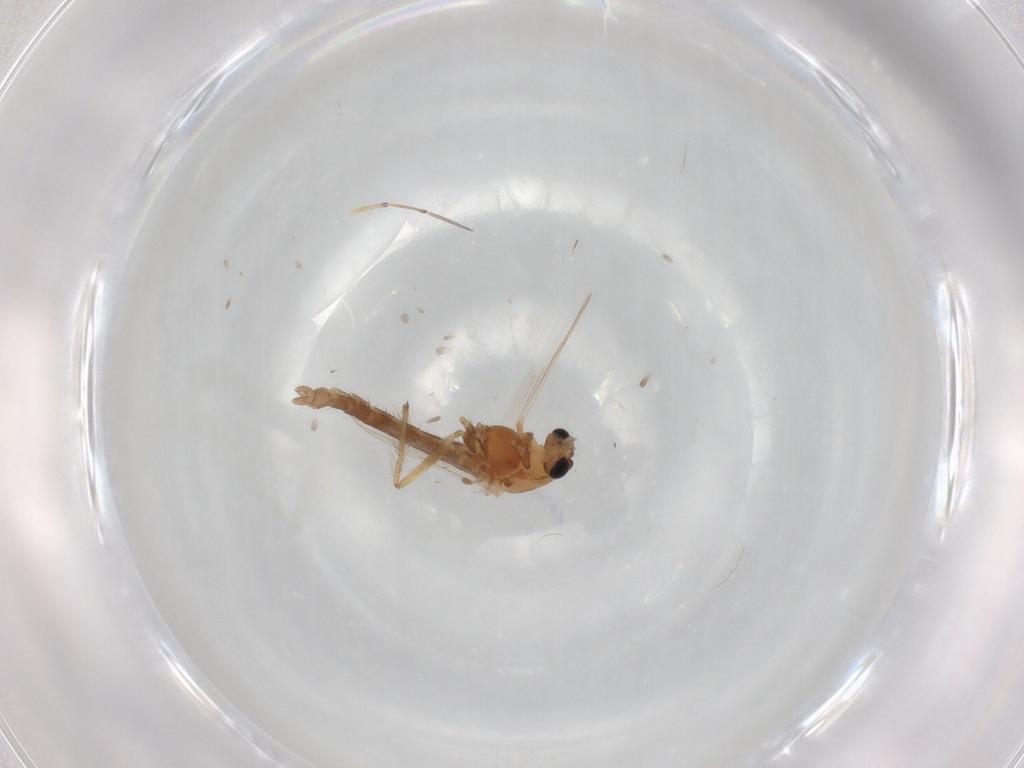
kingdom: Animalia
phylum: Arthropoda
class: Insecta
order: Diptera
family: Chironomidae
